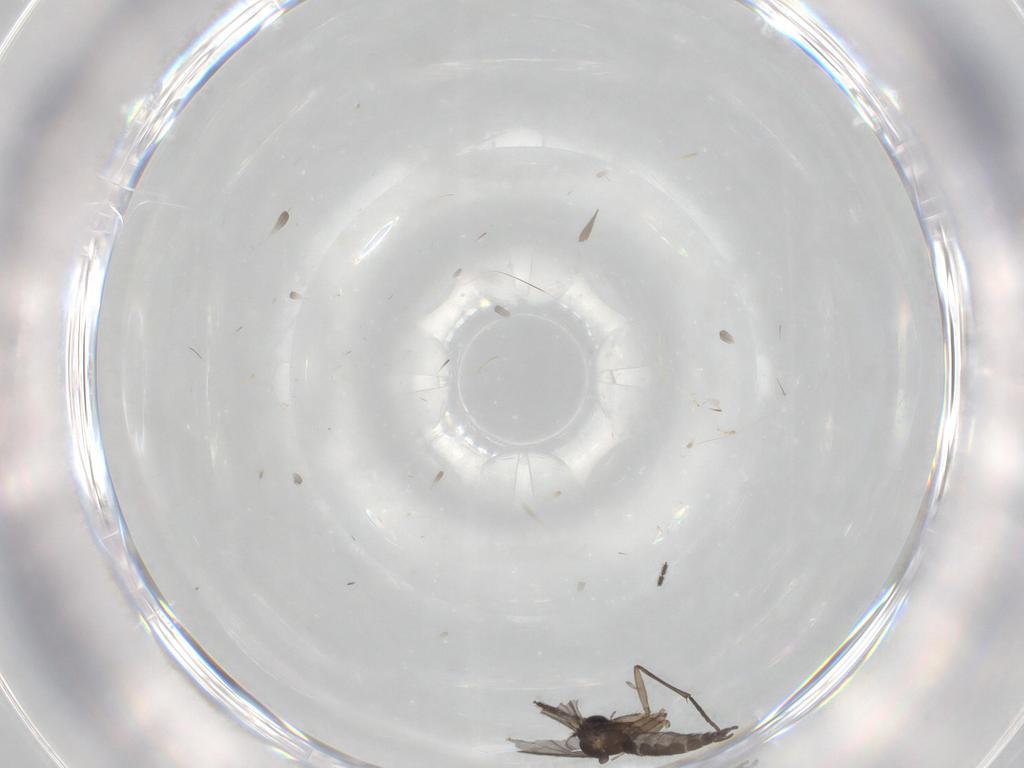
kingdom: Animalia
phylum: Arthropoda
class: Insecta
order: Diptera
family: Sciaridae
